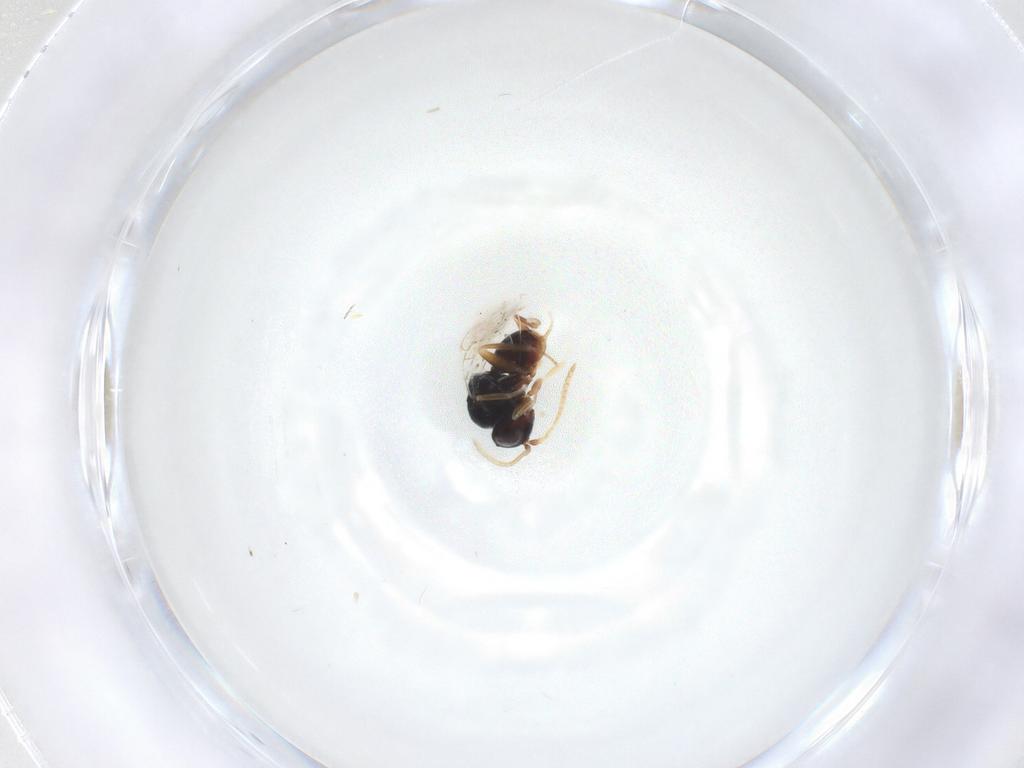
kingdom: Animalia
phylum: Arthropoda
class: Insecta
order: Hymenoptera
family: Cynipidae
